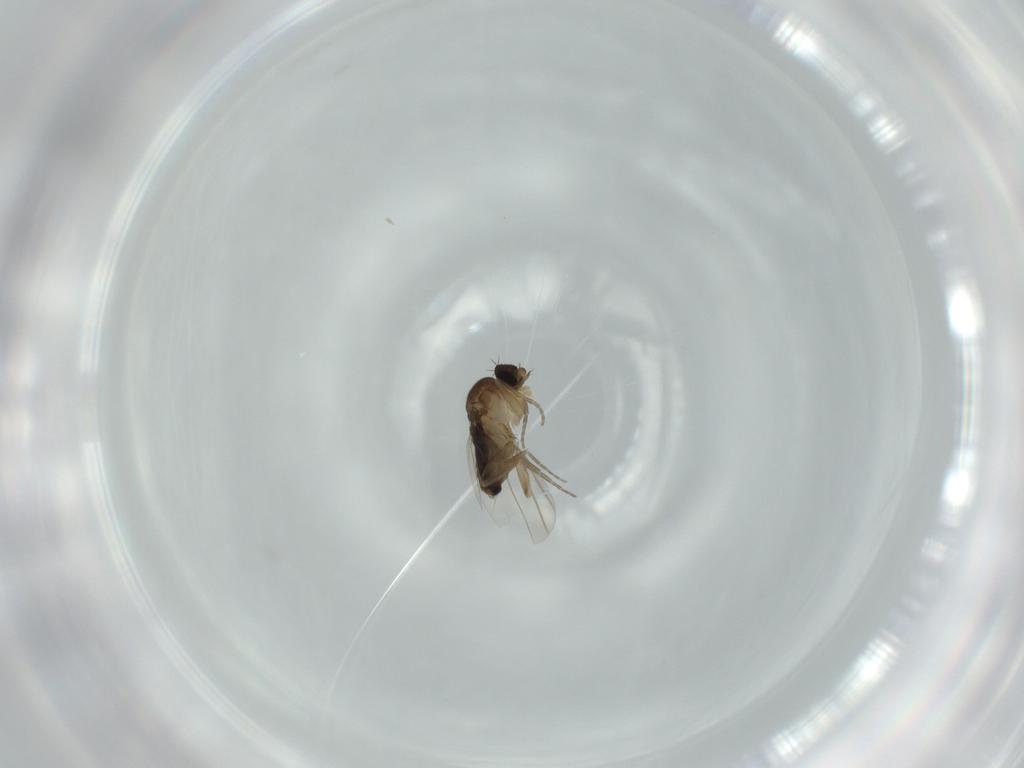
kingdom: Animalia
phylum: Arthropoda
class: Insecta
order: Diptera
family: Phoridae
